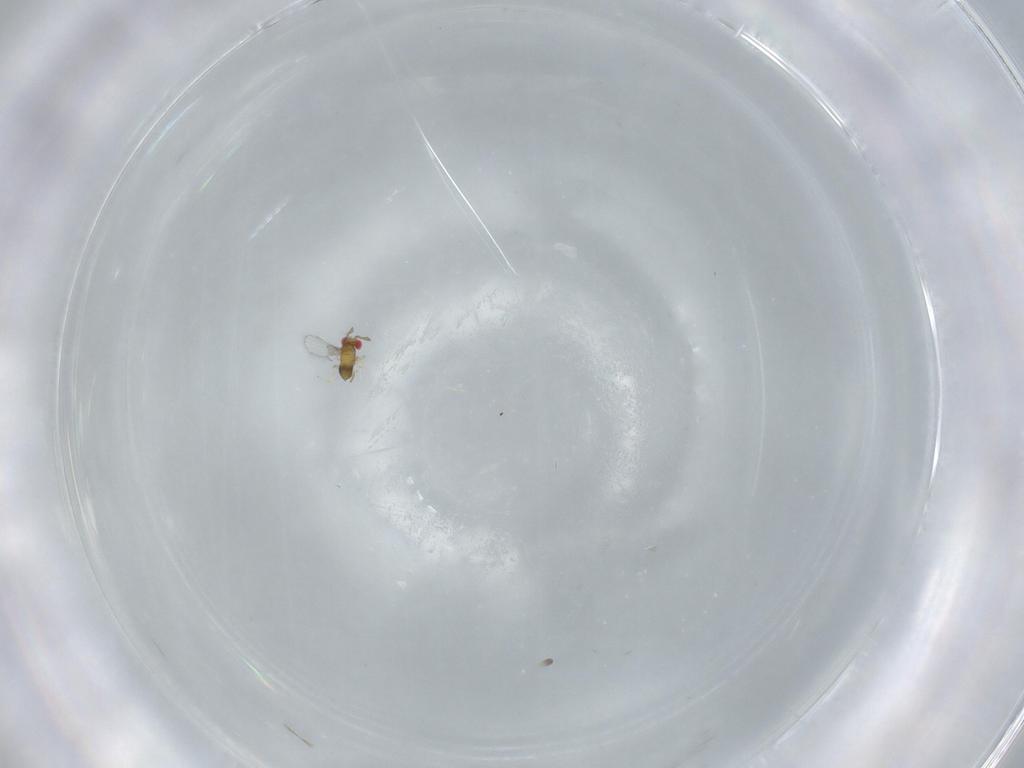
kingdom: Animalia
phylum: Arthropoda
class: Insecta
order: Hymenoptera
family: Trichogrammatidae
